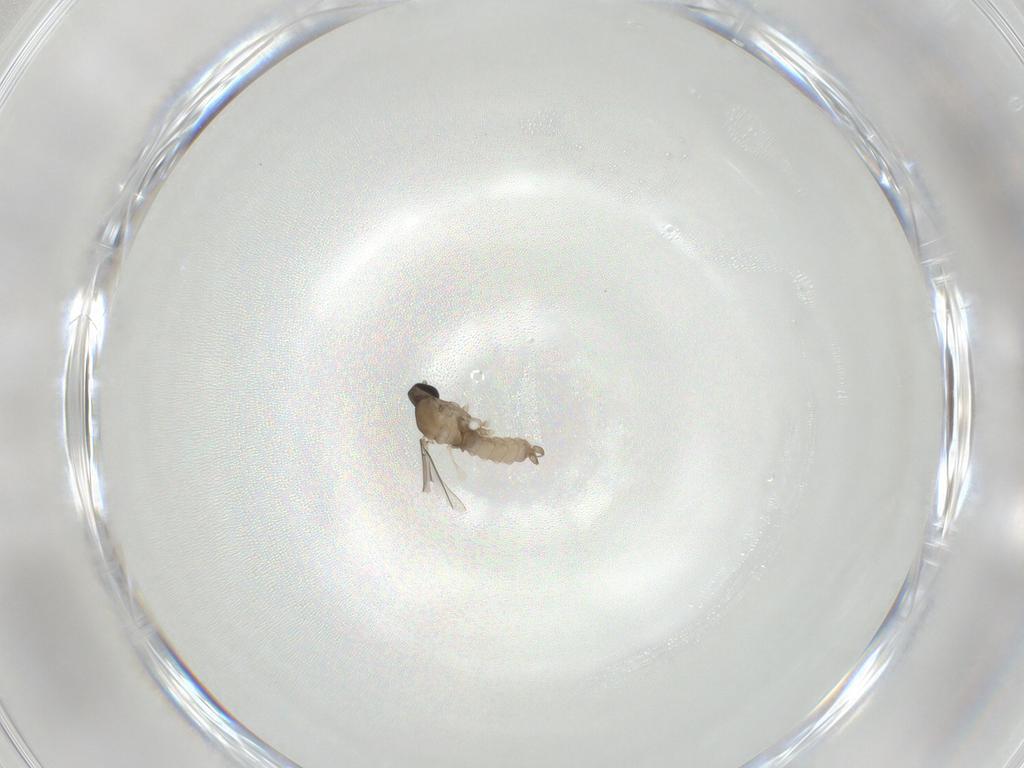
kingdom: Animalia
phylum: Arthropoda
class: Insecta
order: Diptera
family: Cecidomyiidae
